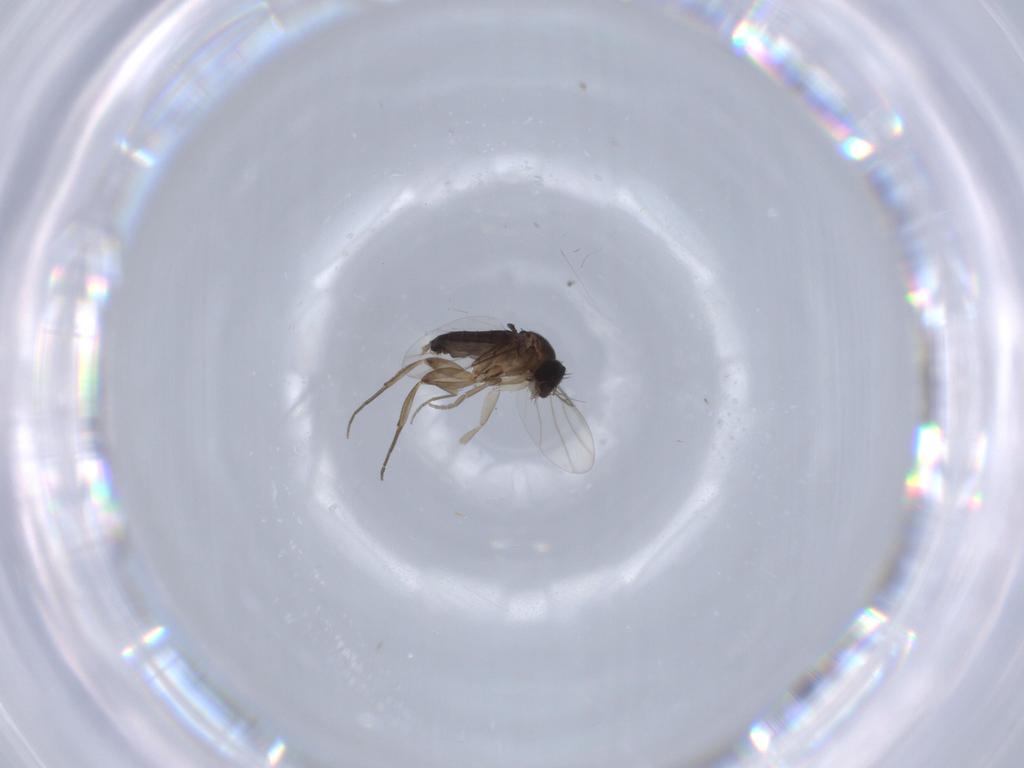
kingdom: Animalia
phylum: Arthropoda
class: Insecta
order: Diptera
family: Phoridae
